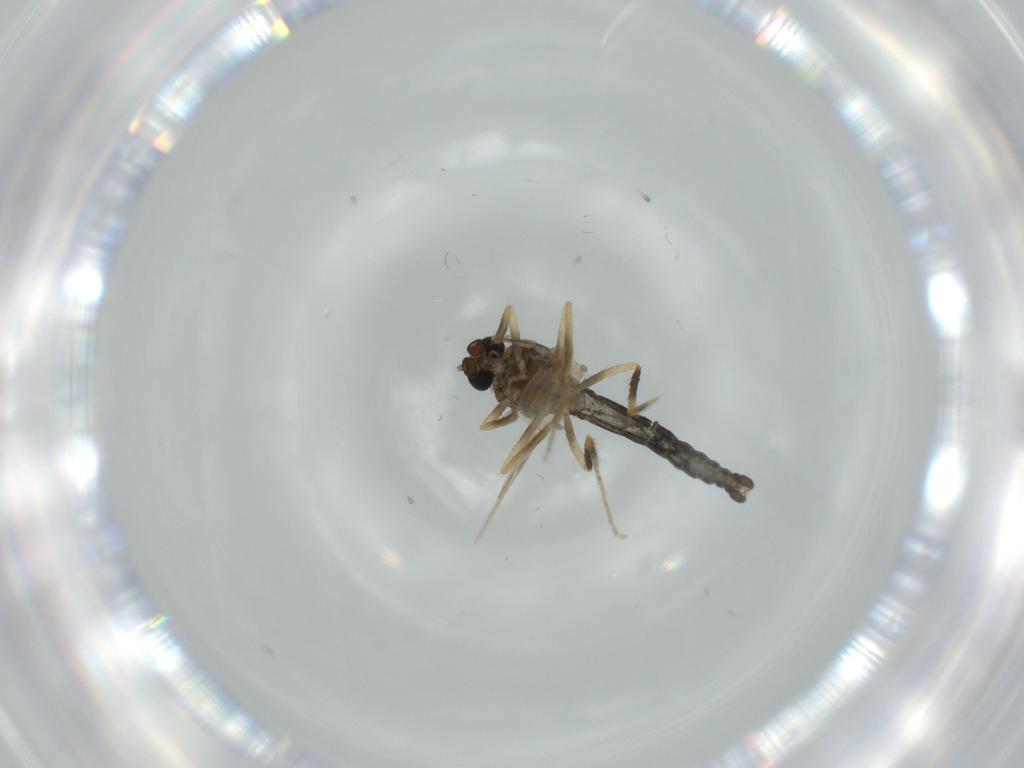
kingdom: Animalia
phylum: Arthropoda
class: Insecta
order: Diptera
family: Ceratopogonidae
